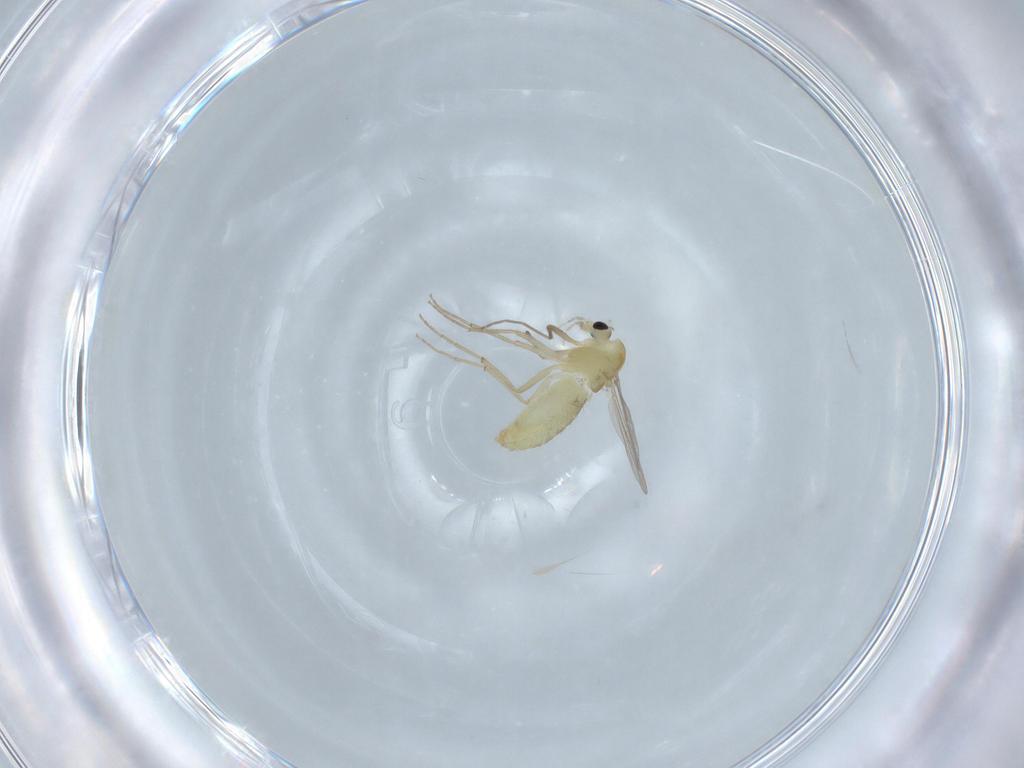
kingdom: Animalia
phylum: Arthropoda
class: Insecta
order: Diptera
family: Chironomidae
